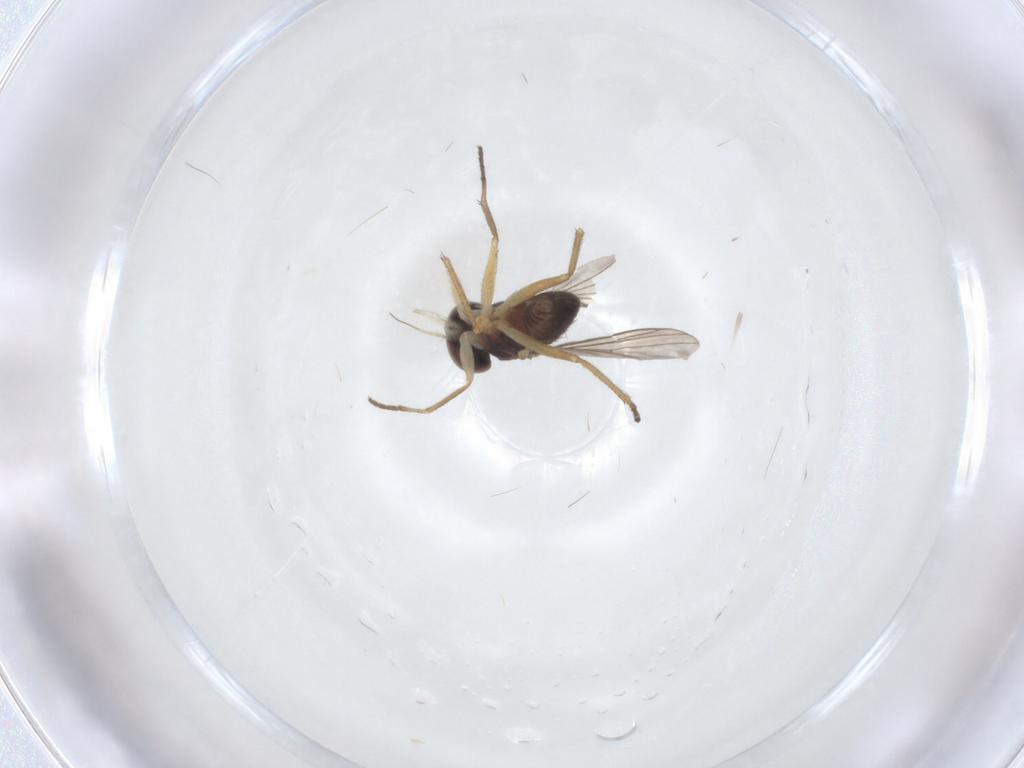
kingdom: Animalia
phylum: Arthropoda
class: Insecta
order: Diptera
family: Dolichopodidae
